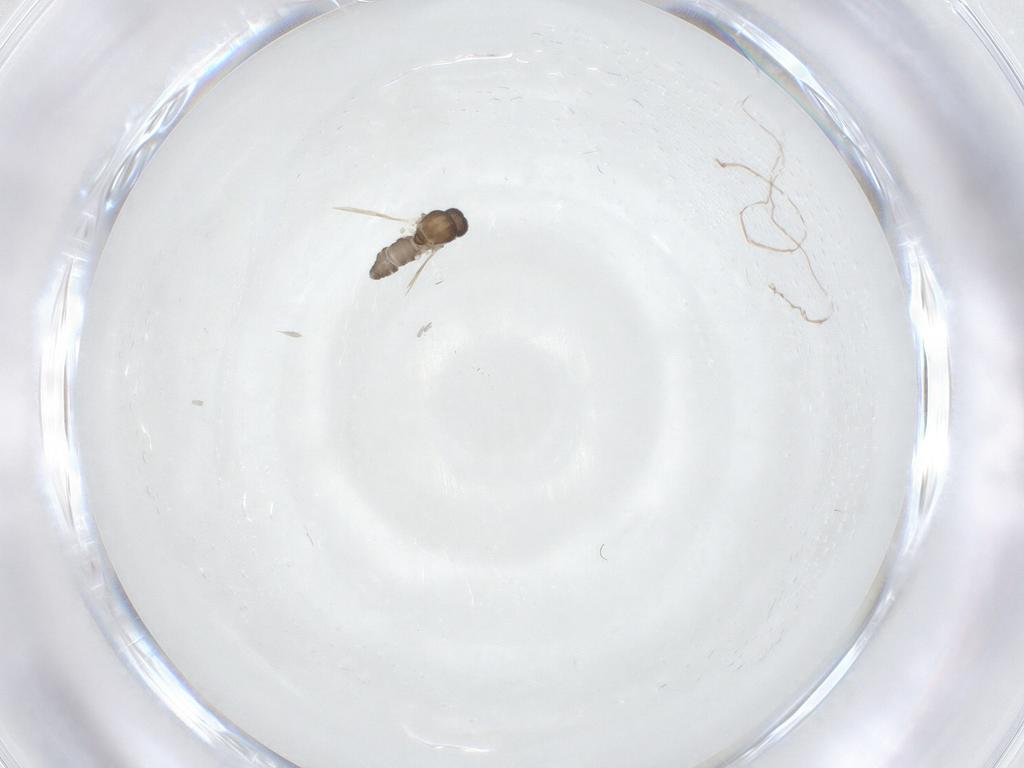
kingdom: Animalia
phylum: Arthropoda
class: Insecta
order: Diptera
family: Ceratopogonidae
